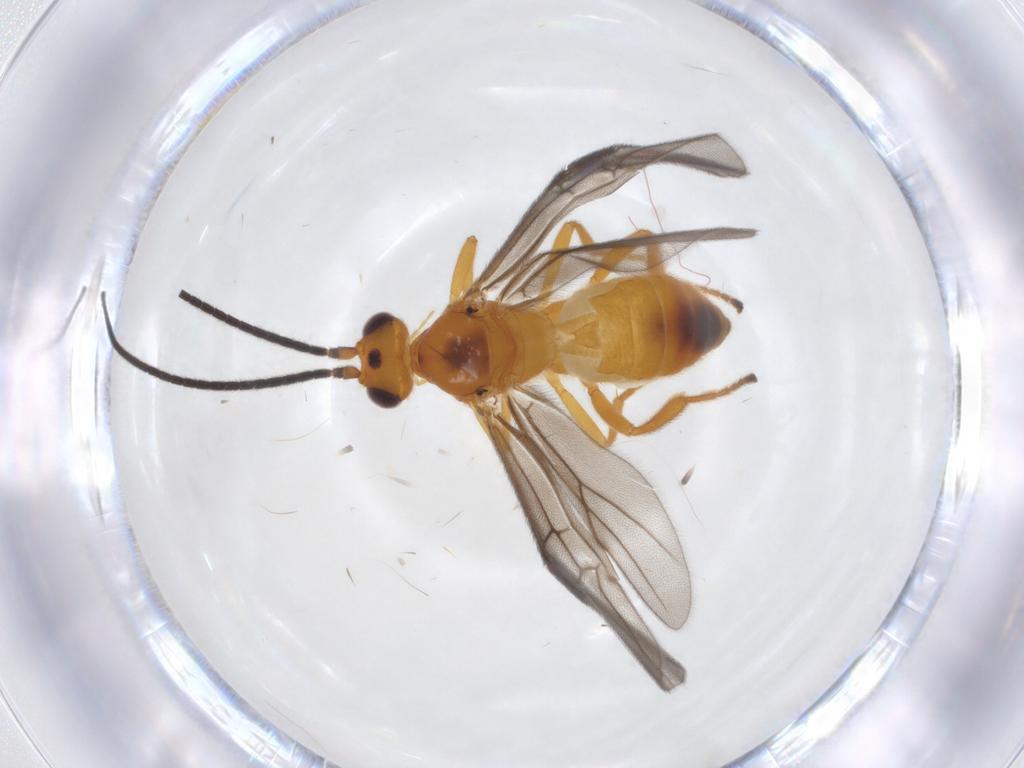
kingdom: Animalia
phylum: Arthropoda
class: Insecta
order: Hymenoptera
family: Braconidae
